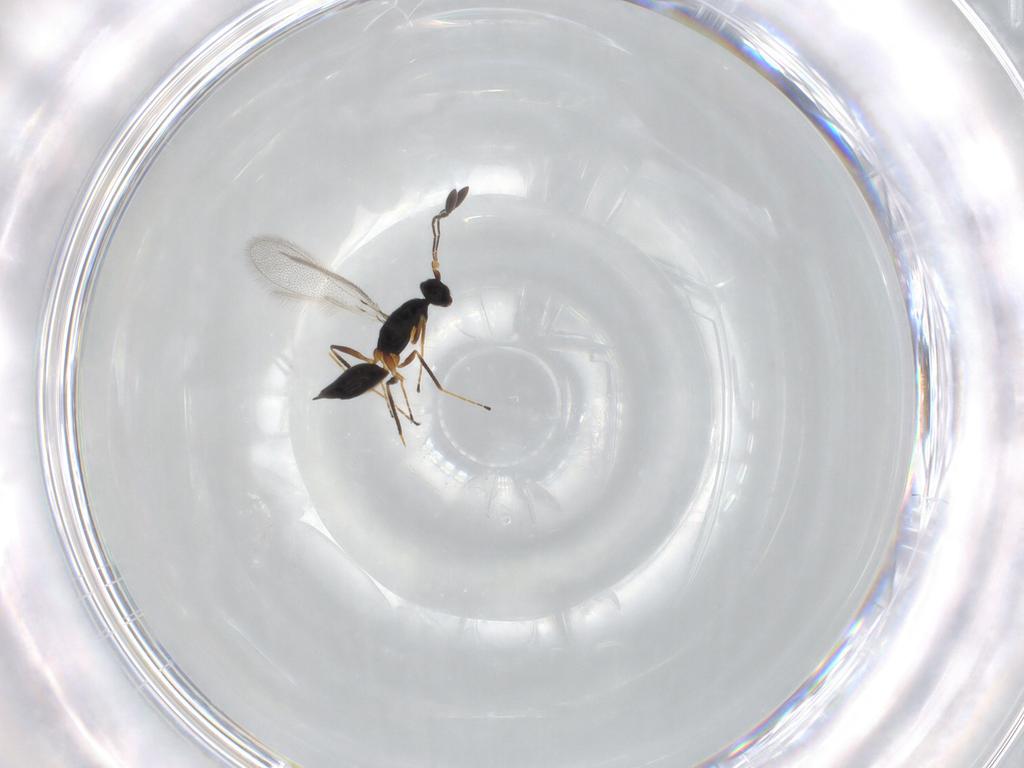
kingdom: Animalia
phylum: Arthropoda
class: Insecta
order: Hymenoptera
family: Mymaridae
